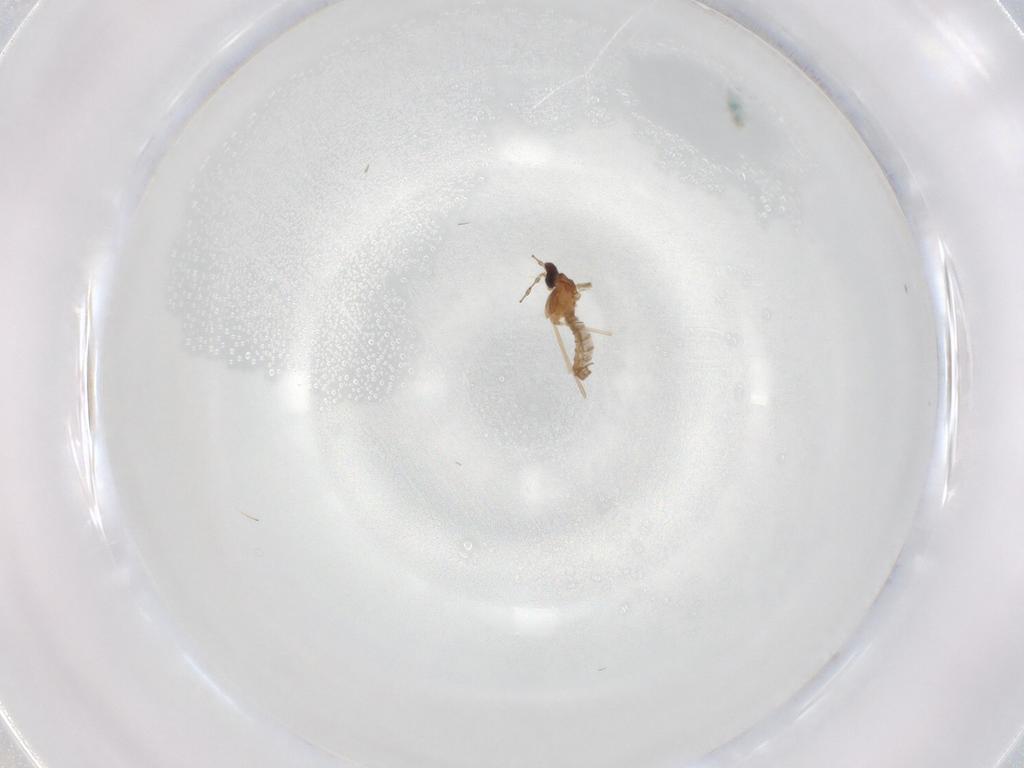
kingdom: Animalia
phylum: Arthropoda
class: Insecta
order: Diptera
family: Cecidomyiidae
